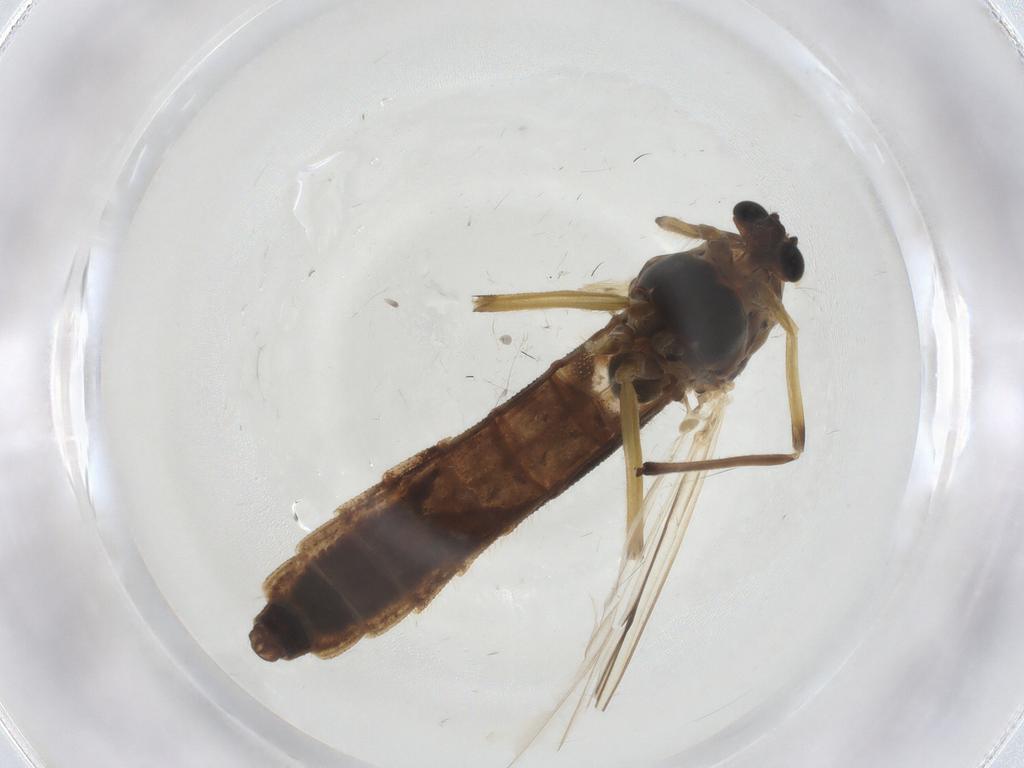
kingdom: Animalia
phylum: Arthropoda
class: Insecta
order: Diptera
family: Chironomidae
